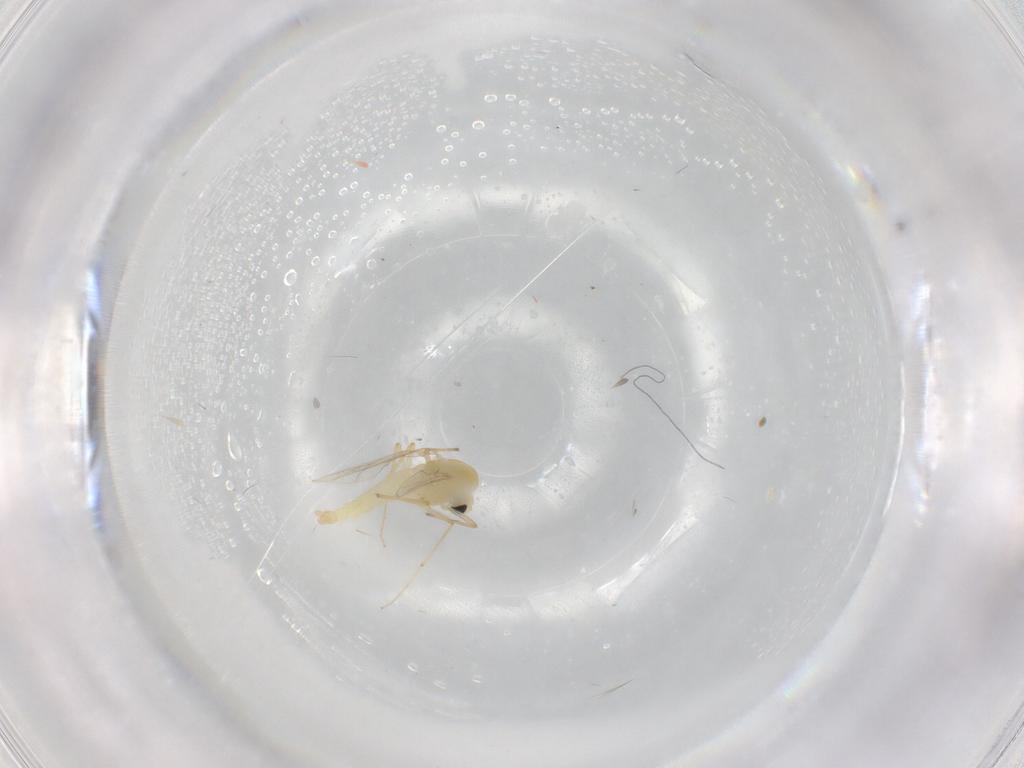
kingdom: Animalia
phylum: Arthropoda
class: Insecta
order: Diptera
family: Chironomidae
